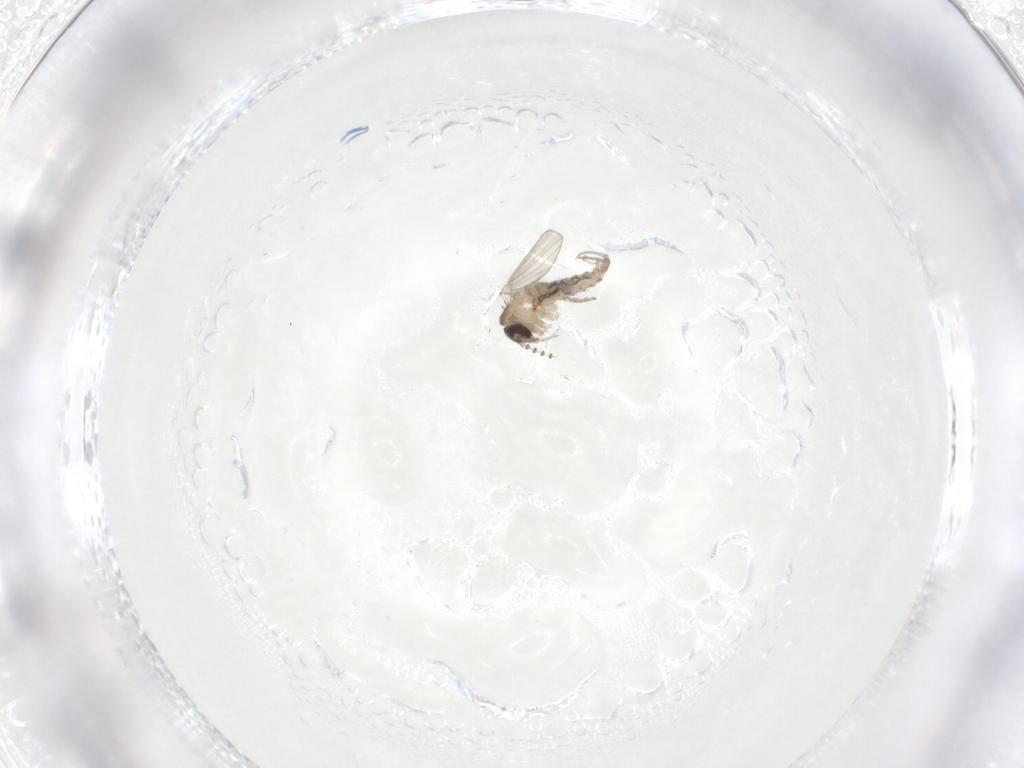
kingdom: Animalia
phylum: Arthropoda
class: Insecta
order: Diptera
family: Psychodidae
